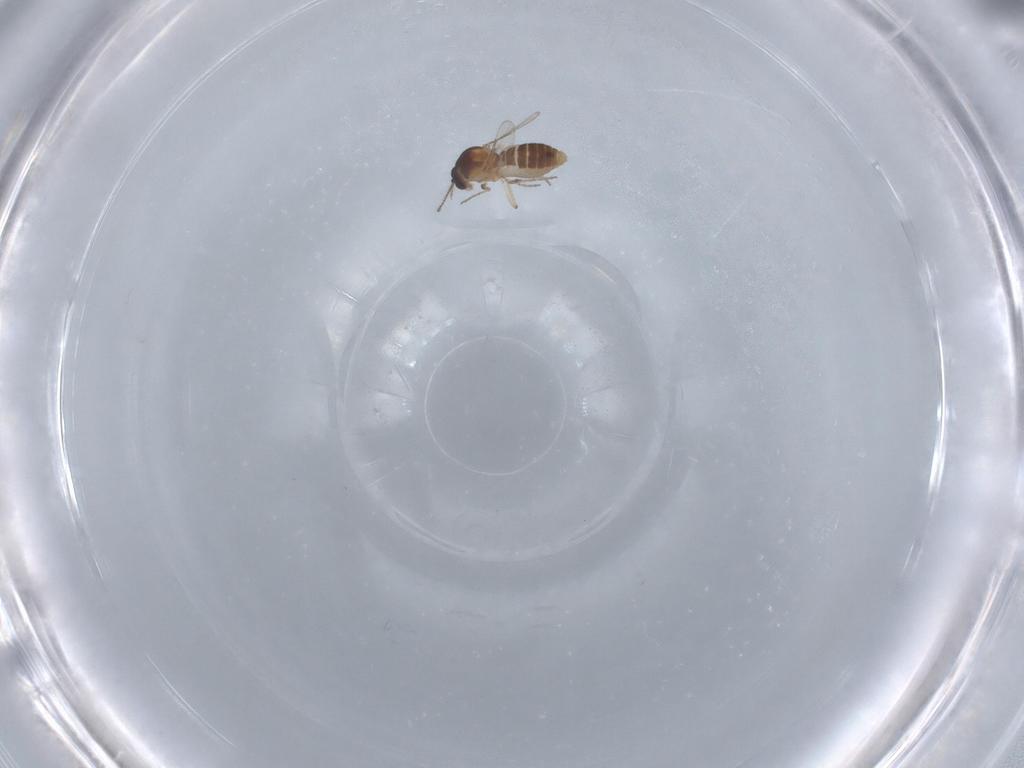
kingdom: Animalia
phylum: Arthropoda
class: Insecta
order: Diptera
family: Ceratopogonidae
